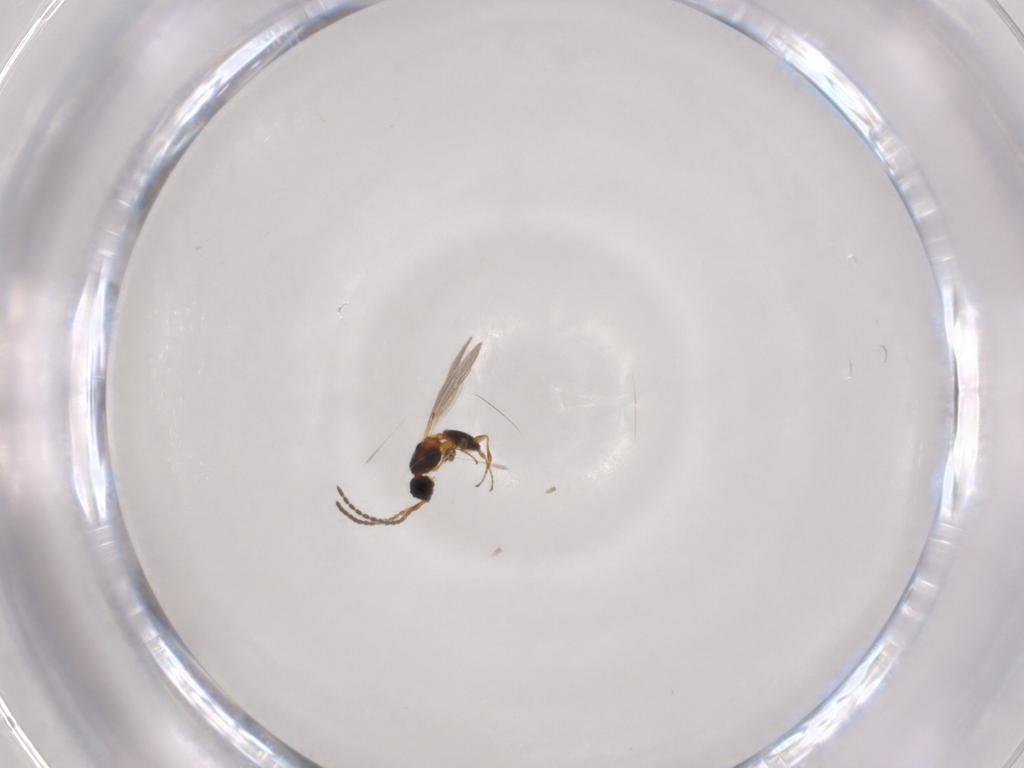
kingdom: Animalia
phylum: Arthropoda
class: Insecta
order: Hymenoptera
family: Diapriidae
